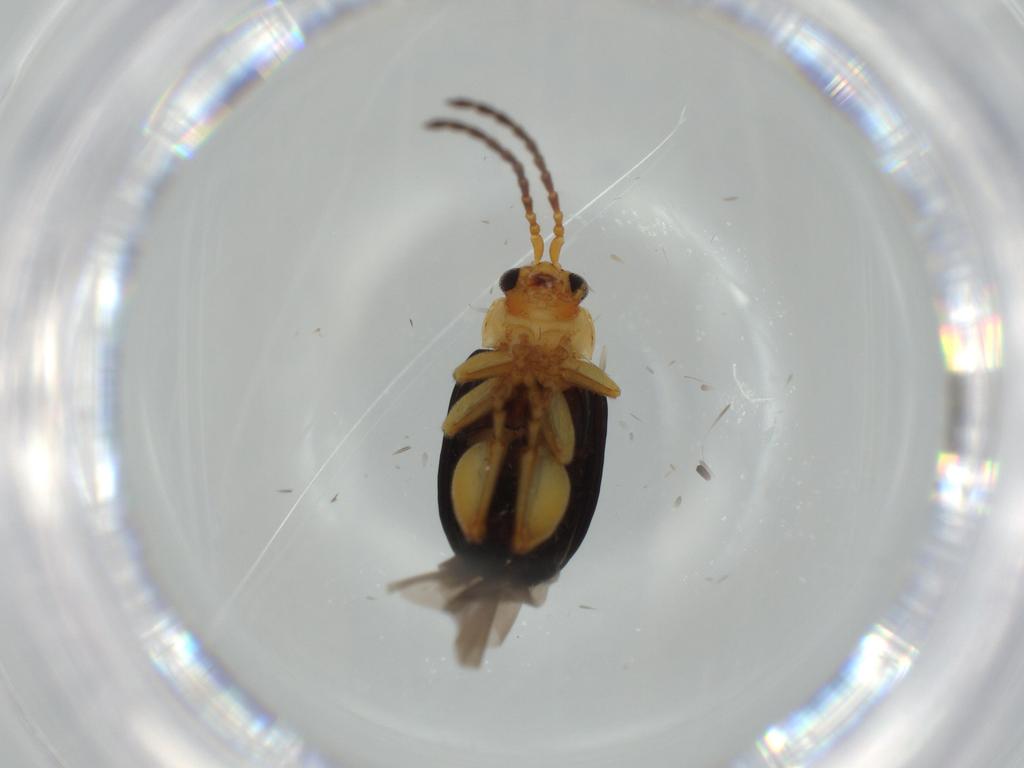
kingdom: Animalia
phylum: Arthropoda
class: Insecta
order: Coleoptera
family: Chrysomelidae
